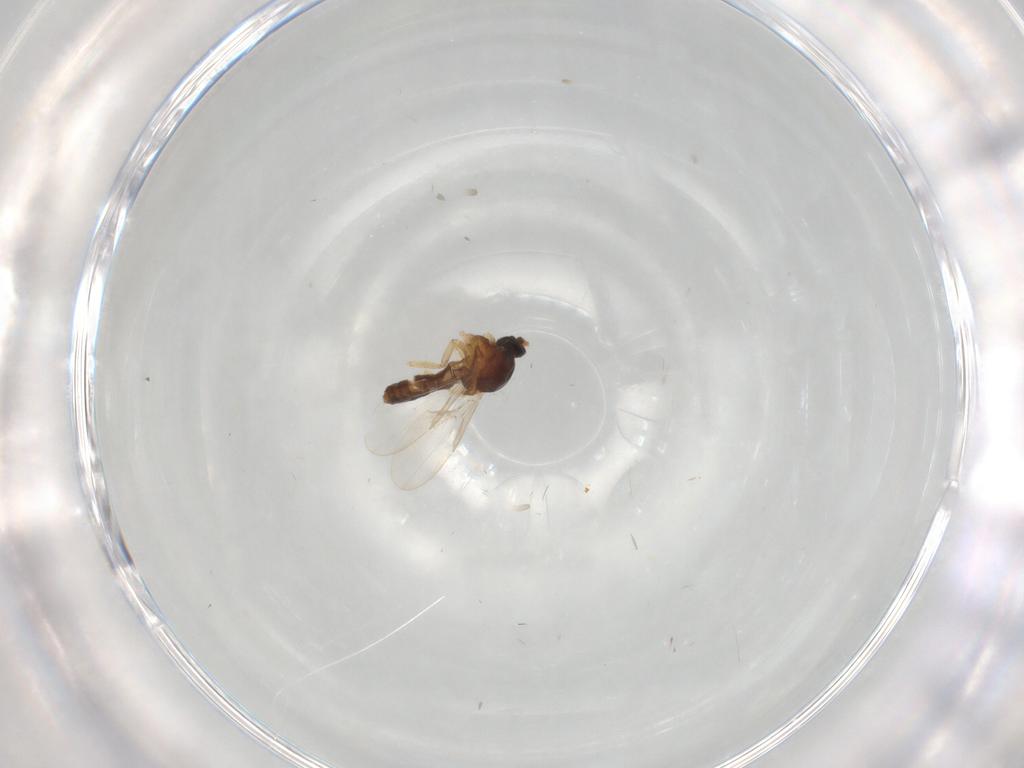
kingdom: Animalia
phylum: Arthropoda
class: Insecta
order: Diptera
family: Ceratopogonidae
